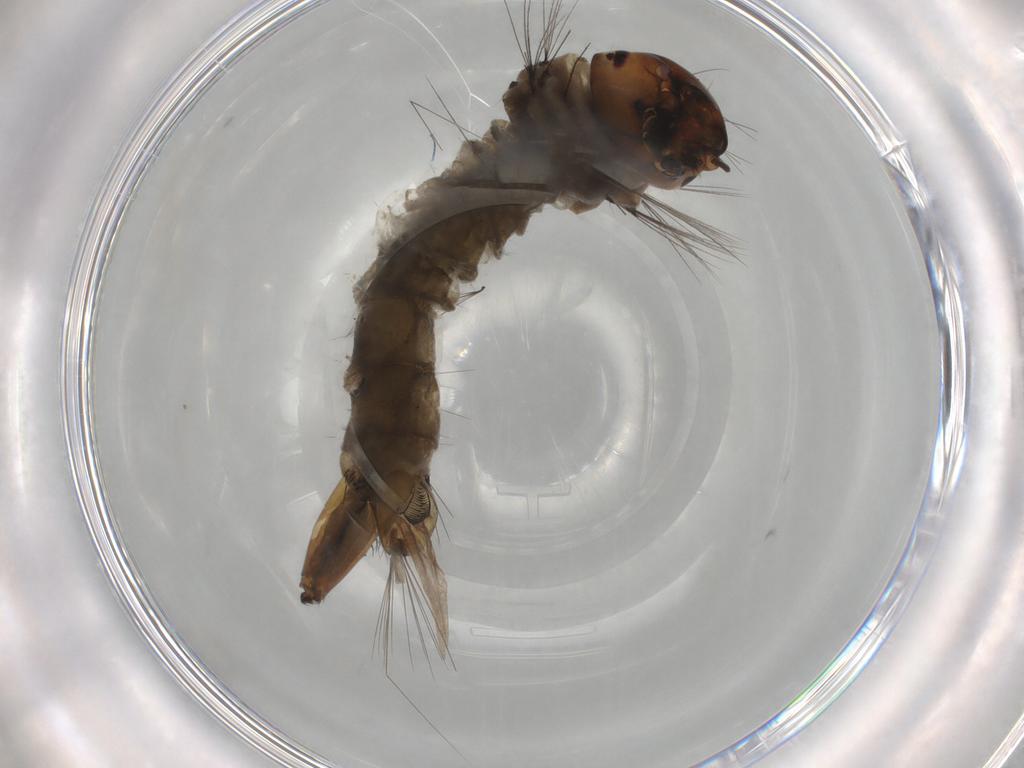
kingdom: Animalia
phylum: Arthropoda
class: Insecta
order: Diptera
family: Culicidae
